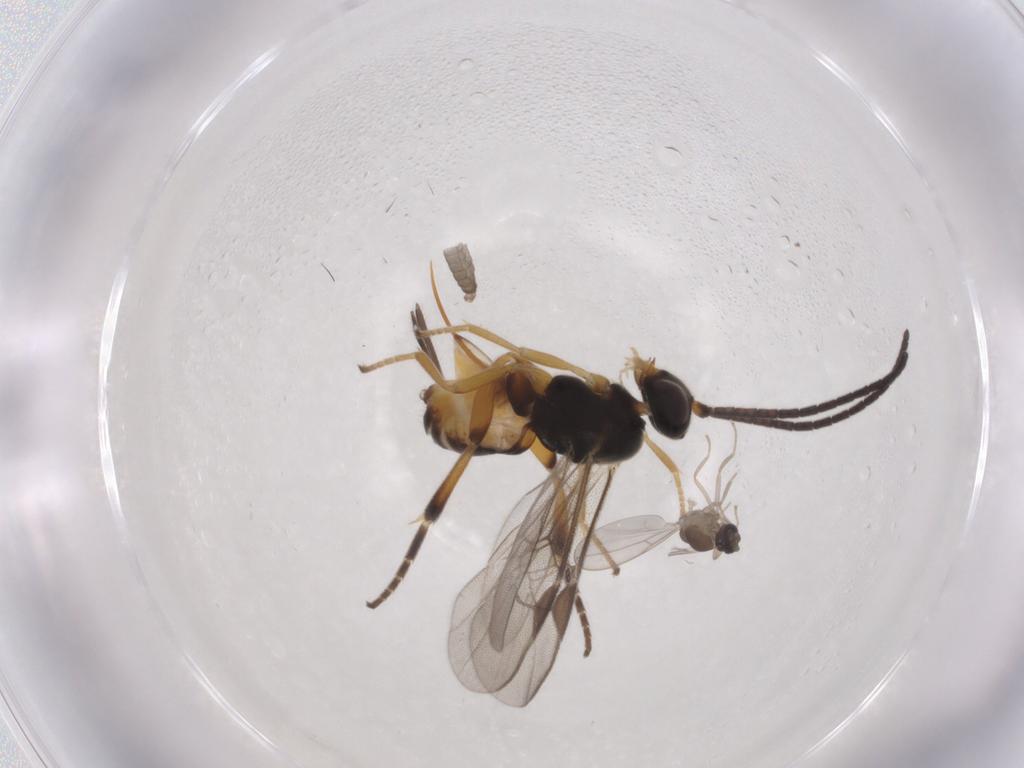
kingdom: Animalia
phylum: Arthropoda
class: Insecta
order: Hymenoptera
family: Braconidae
